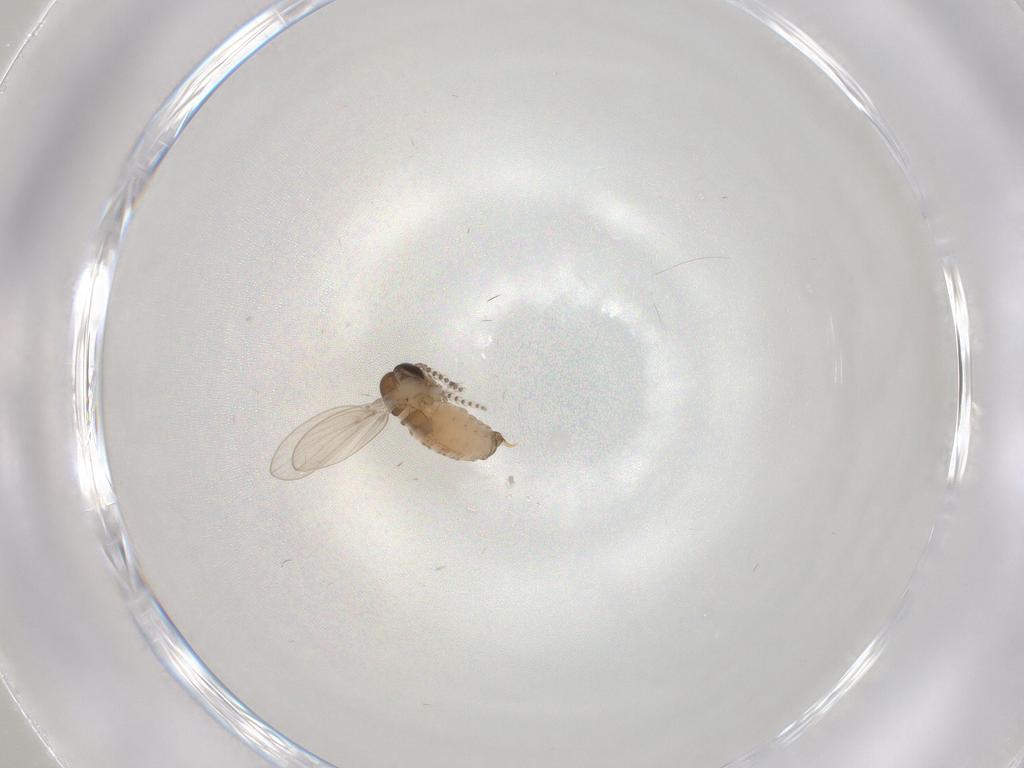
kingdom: Animalia
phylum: Arthropoda
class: Insecta
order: Diptera
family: Psychodidae
